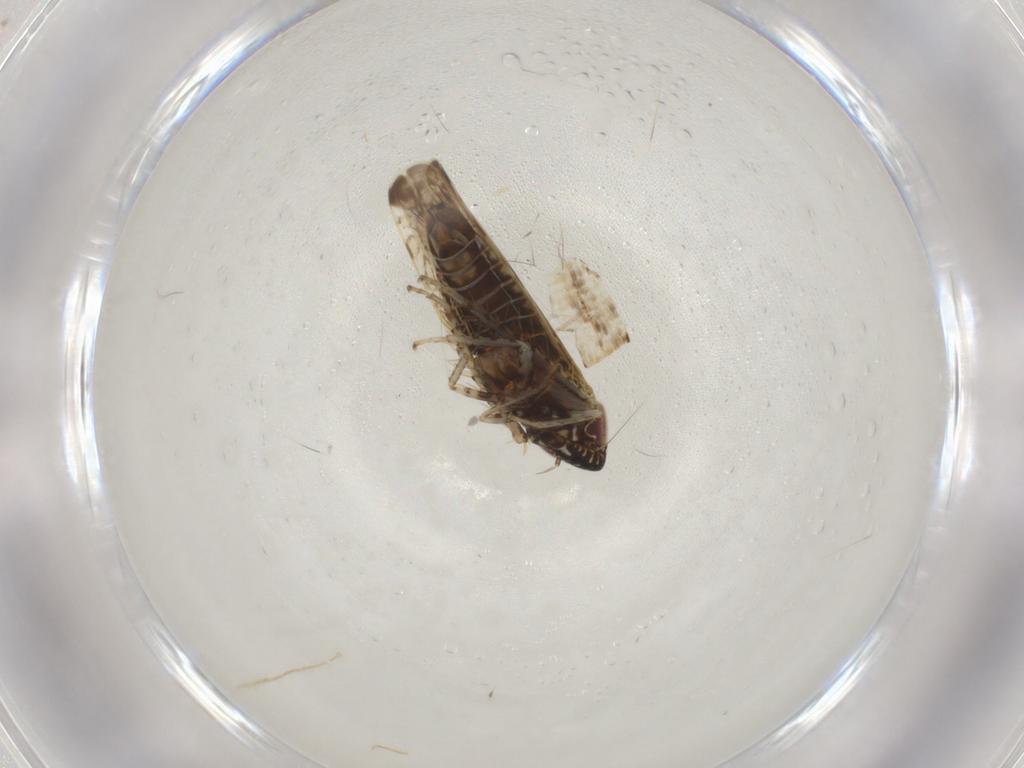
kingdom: Animalia
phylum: Arthropoda
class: Insecta
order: Hemiptera
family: Cicadellidae
